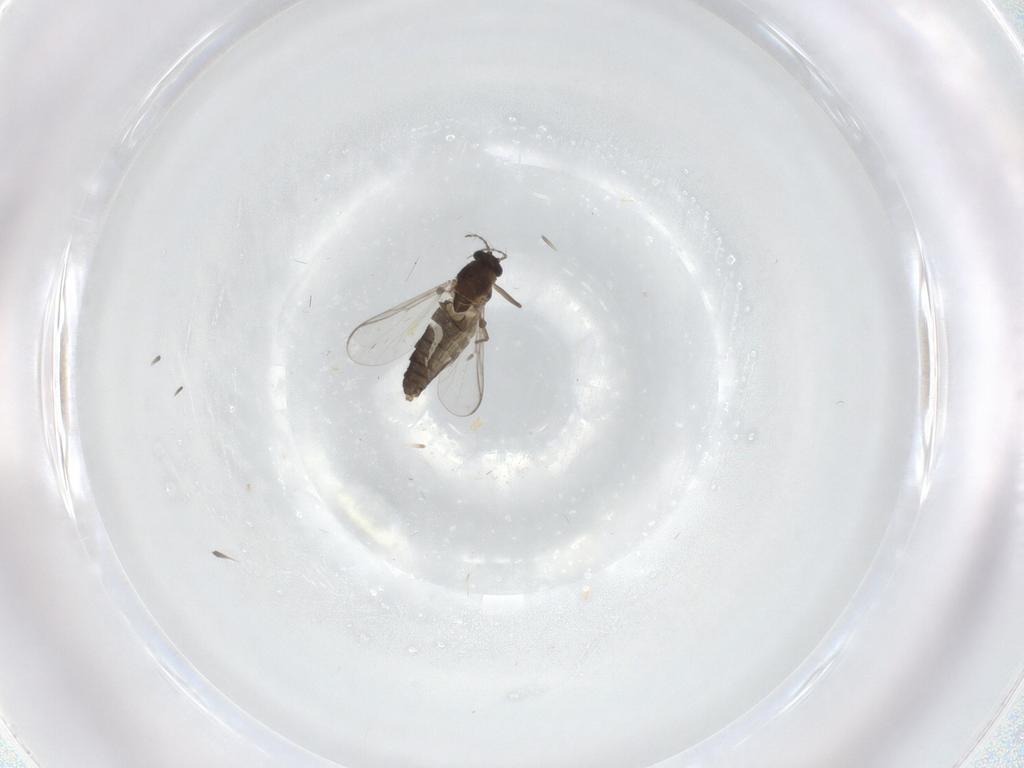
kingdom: Animalia
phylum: Arthropoda
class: Insecta
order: Diptera
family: Chironomidae
